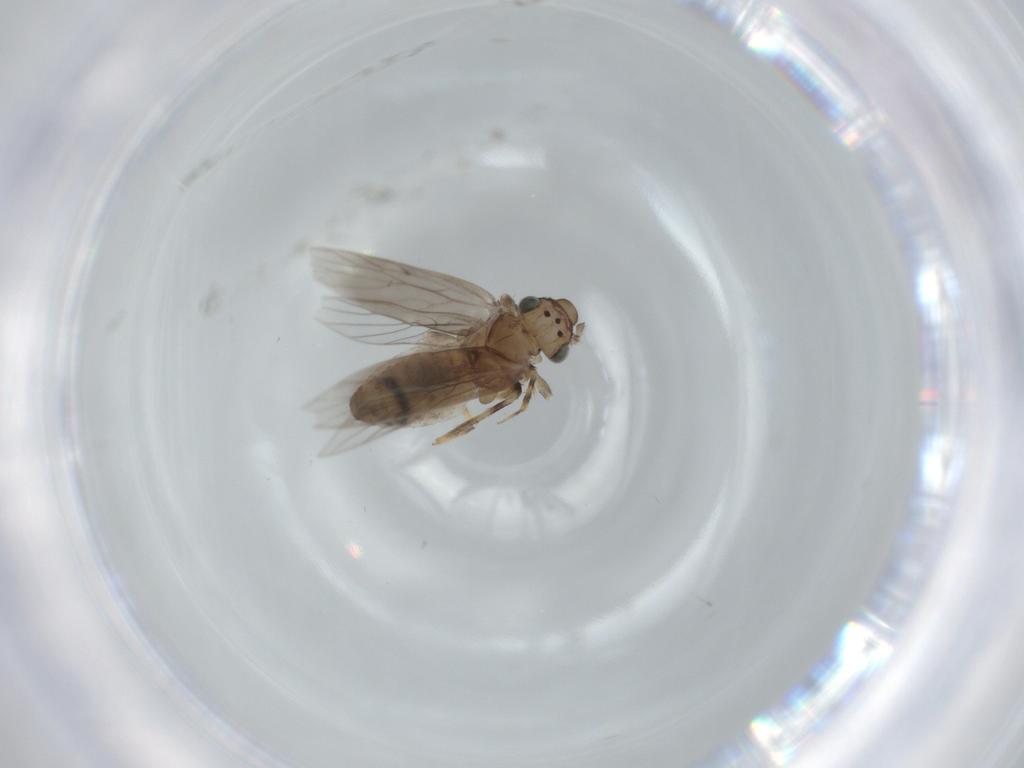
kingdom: Animalia
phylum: Arthropoda
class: Insecta
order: Psocodea
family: Lepidopsocidae
